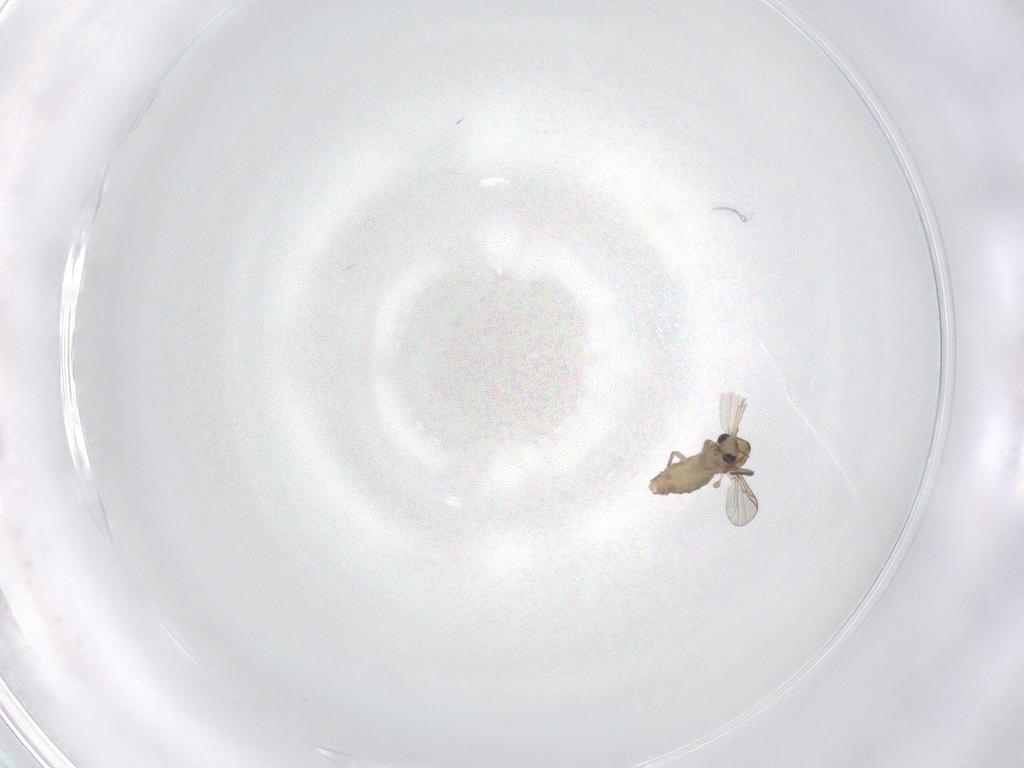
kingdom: Animalia
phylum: Arthropoda
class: Insecta
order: Diptera
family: Chironomidae
